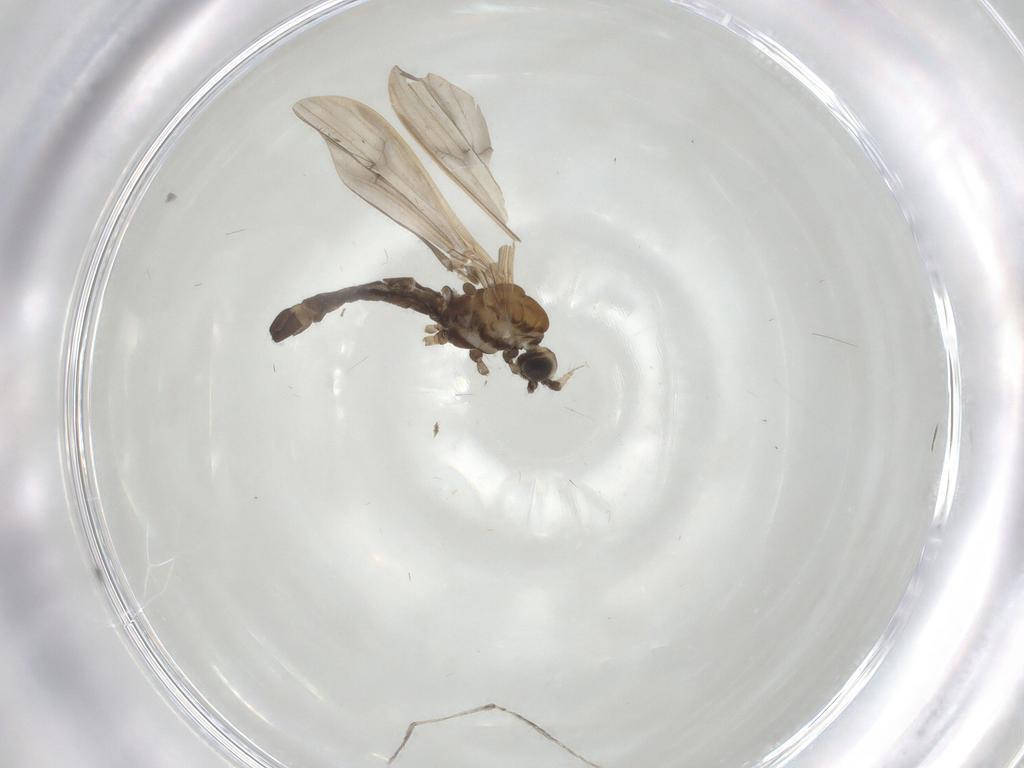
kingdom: Animalia
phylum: Arthropoda
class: Insecta
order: Diptera
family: Limoniidae
